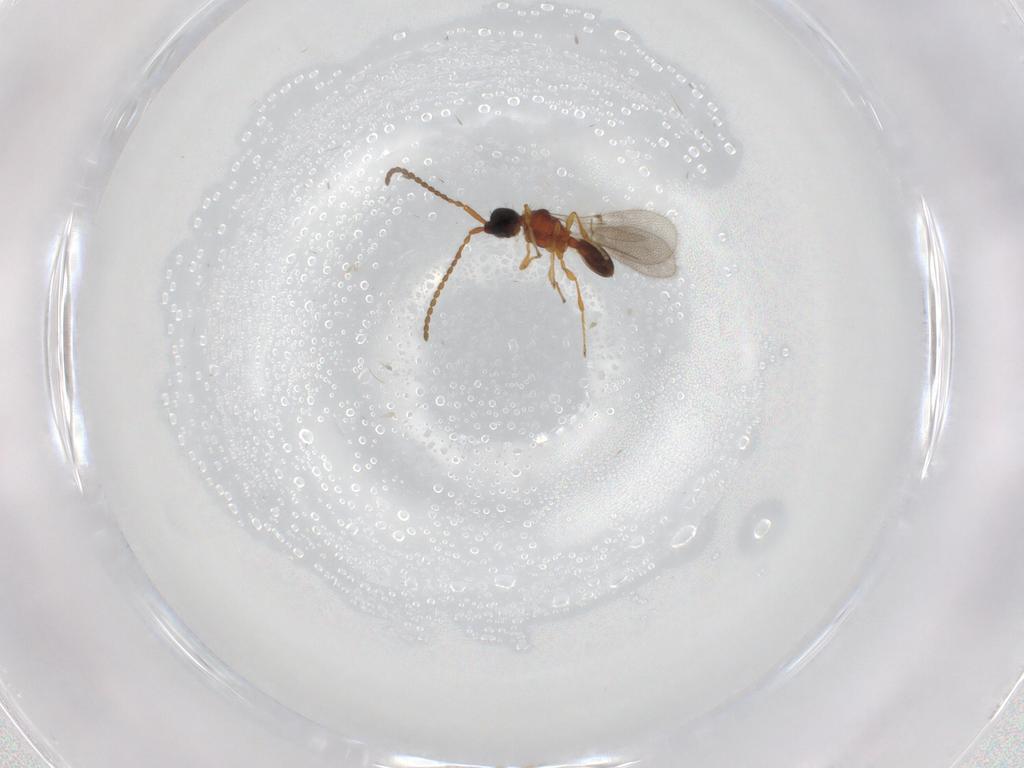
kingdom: Animalia
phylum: Arthropoda
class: Insecta
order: Hymenoptera
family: Diapriidae
